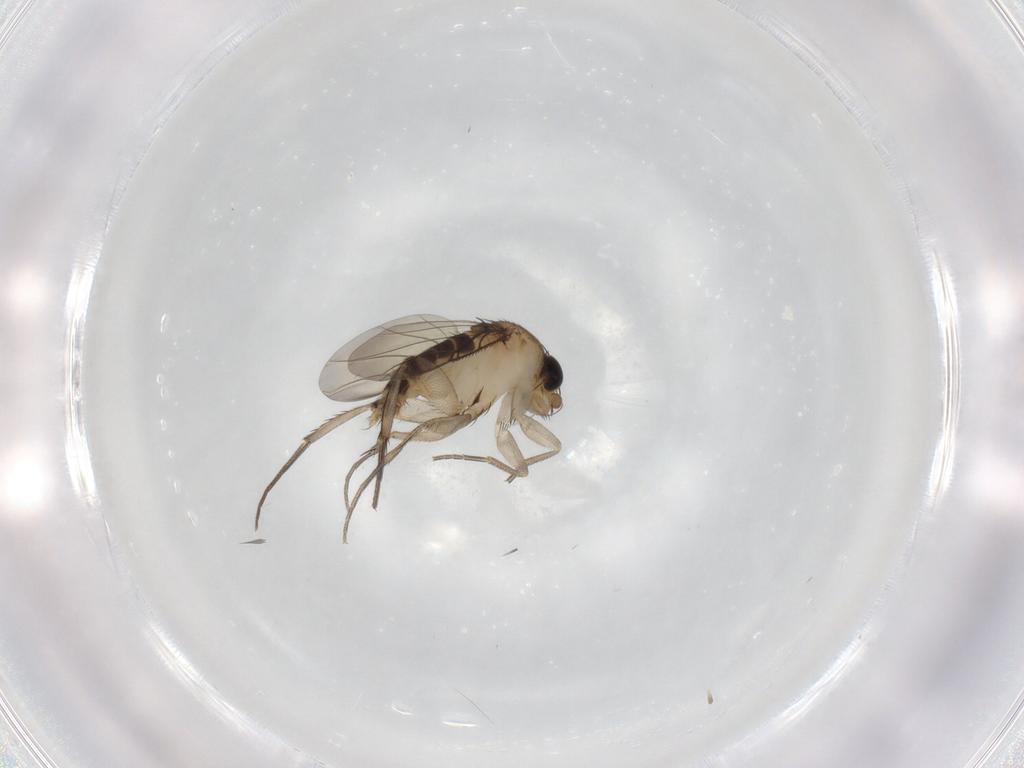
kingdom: Animalia
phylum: Arthropoda
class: Insecta
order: Diptera
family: Phoridae
